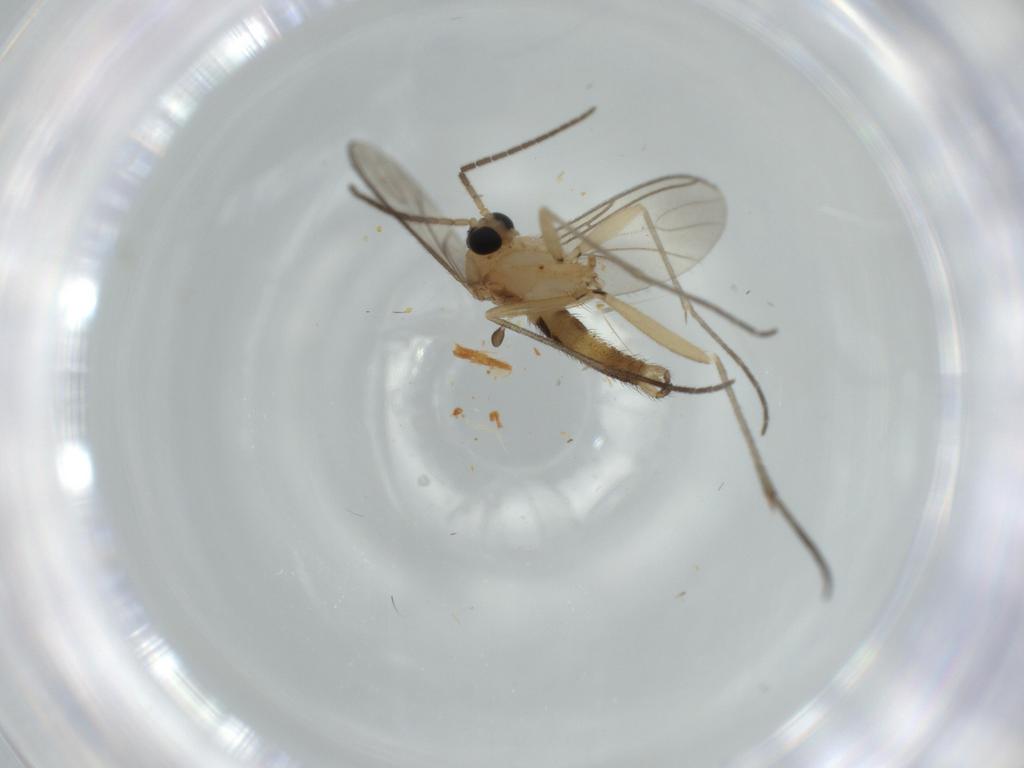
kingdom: Animalia
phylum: Arthropoda
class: Insecta
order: Diptera
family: Sciaridae
